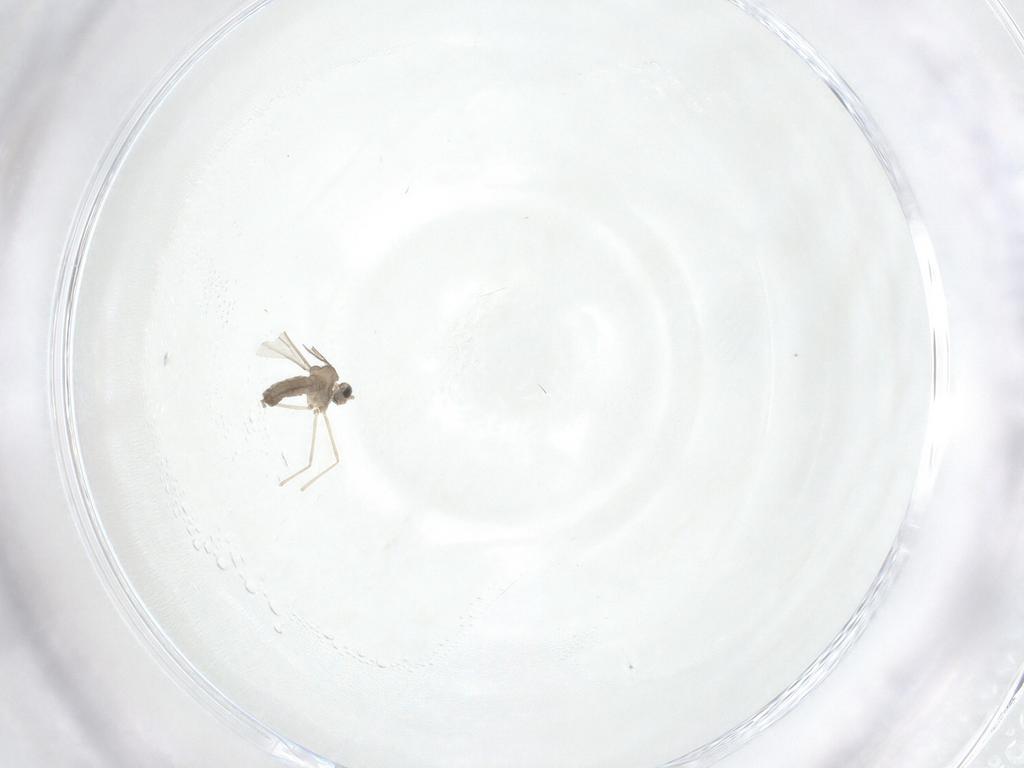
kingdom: Animalia
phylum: Arthropoda
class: Insecta
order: Diptera
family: Cecidomyiidae
